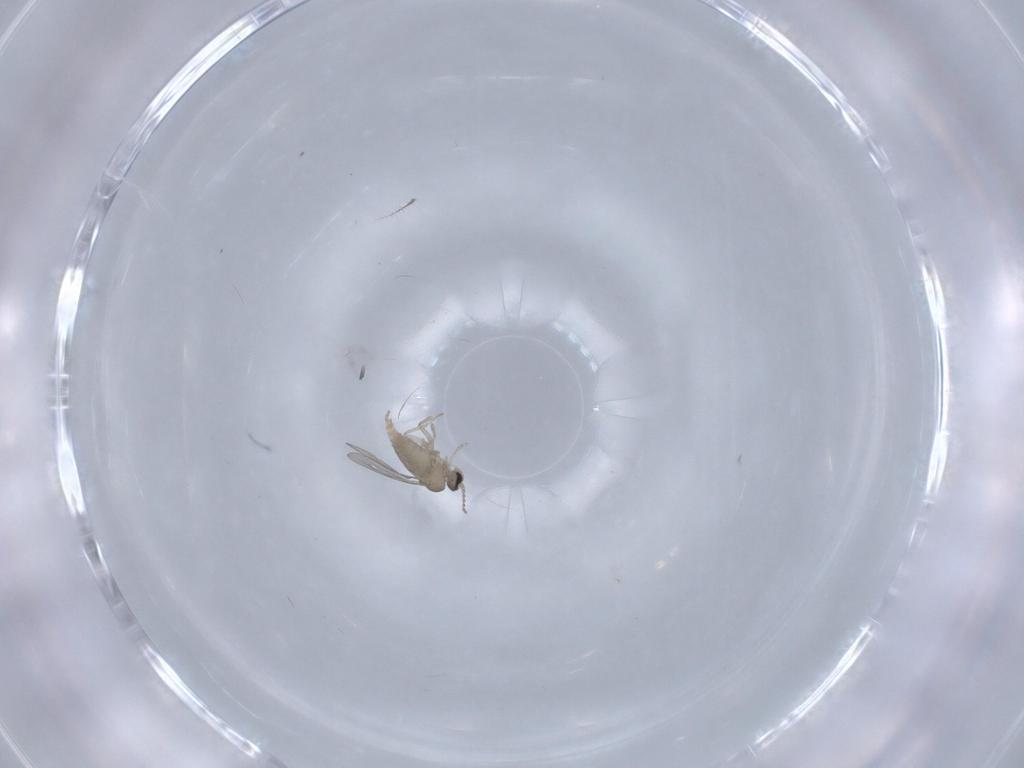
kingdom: Animalia
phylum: Arthropoda
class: Insecta
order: Diptera
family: Cecidomyiidae
